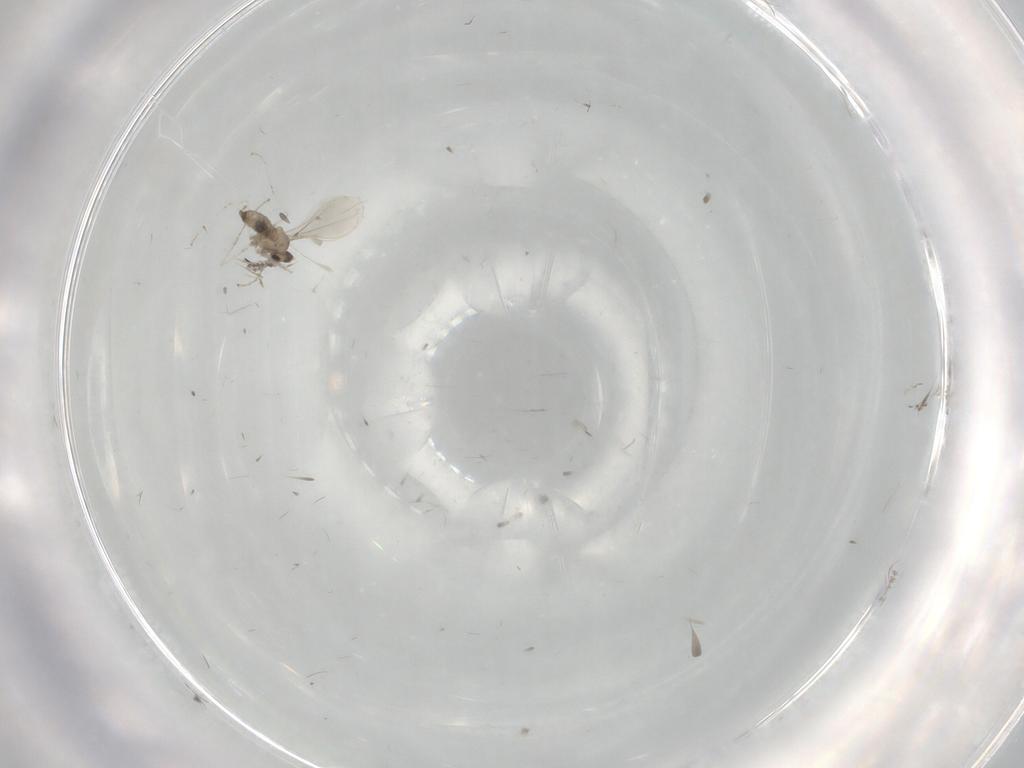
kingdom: Animalia
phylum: Arthropoda
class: Insecta
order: Diptera
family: Cecidomyiidae
